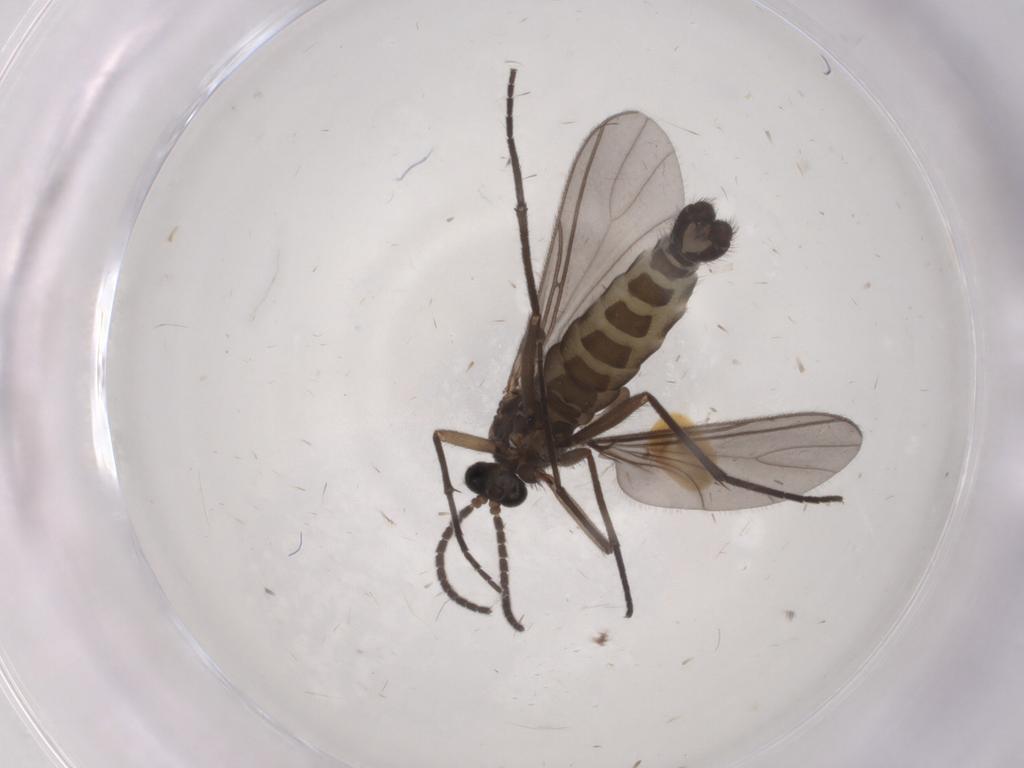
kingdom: Animalia
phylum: Arthropoda
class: Insecta
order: Diptera
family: Sciaridae
